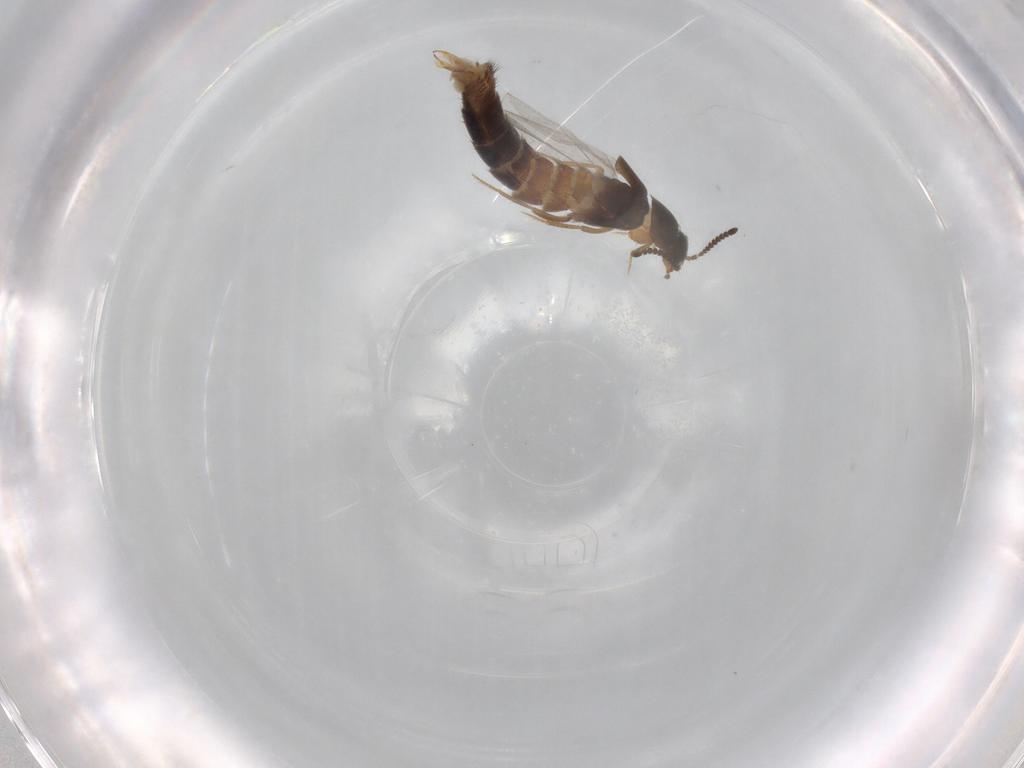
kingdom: Animalia
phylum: Arthropoda
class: Insecta
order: Coleoptera
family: Staphylinidae
